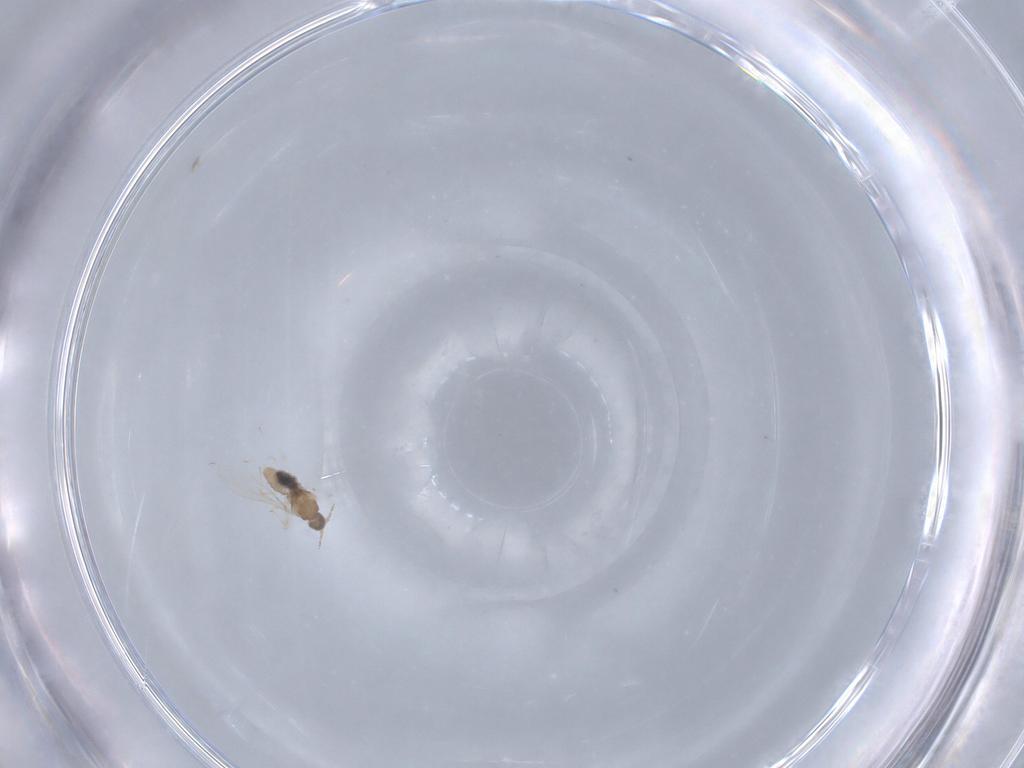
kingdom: Animalia
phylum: Arthropoda
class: Insecta
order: Diptera
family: Cecidomyiidae
